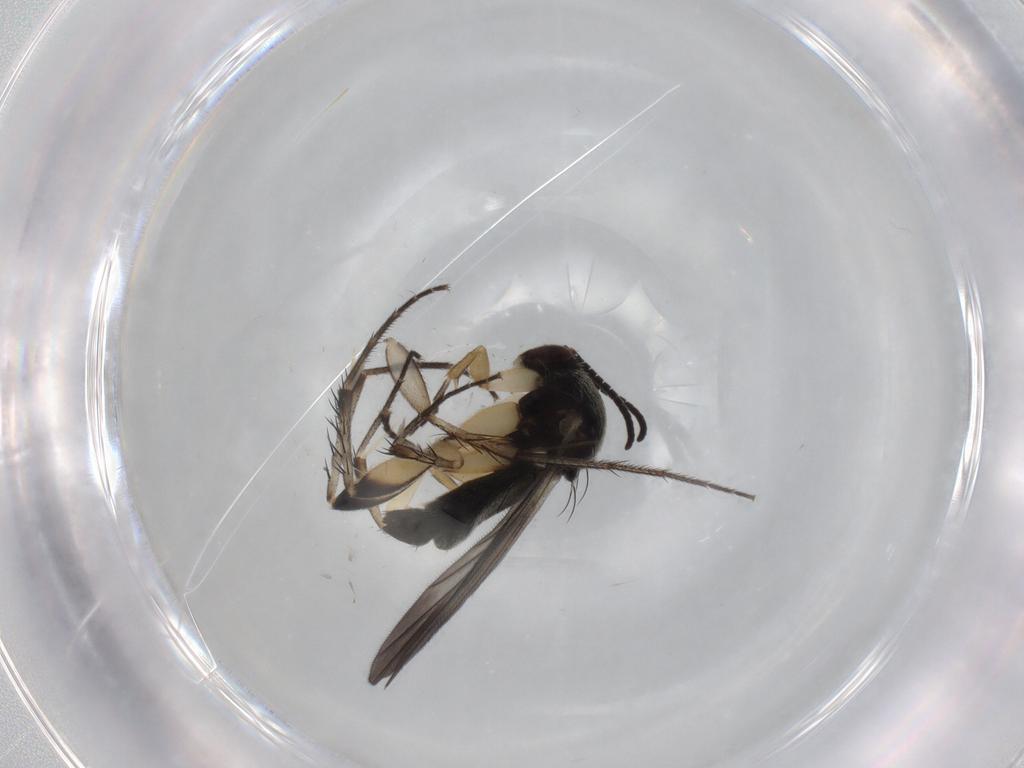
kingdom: Animalia
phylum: Arthropoda
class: Insecta
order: Diptera
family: Mycetophilidae
